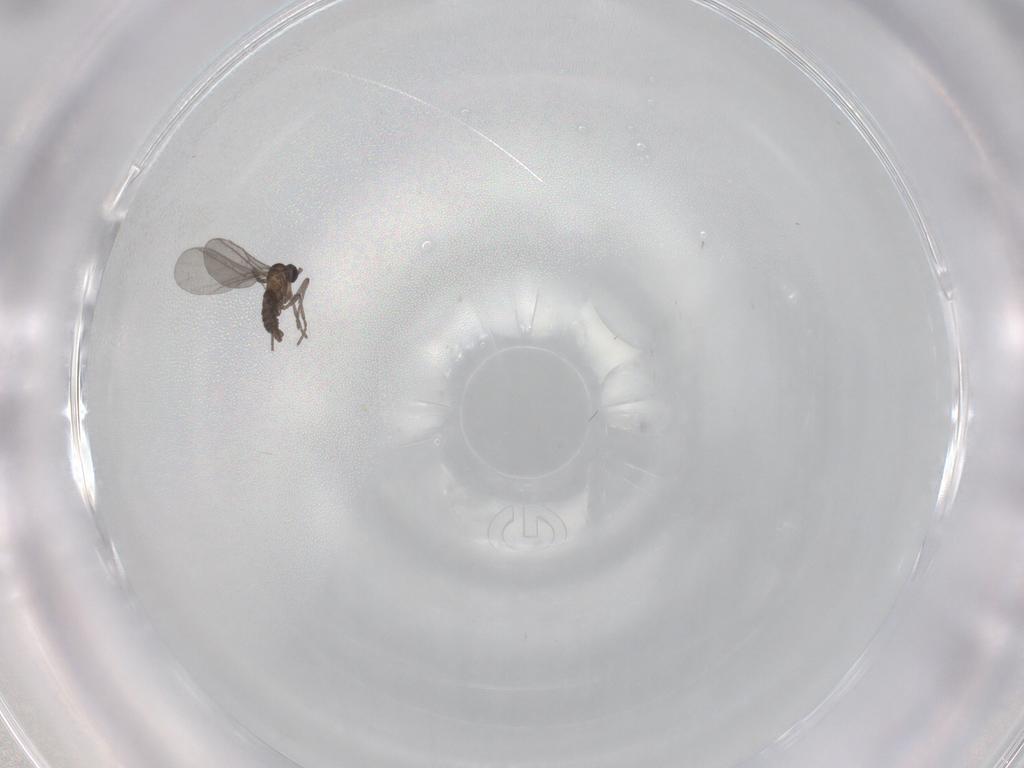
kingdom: Animalia
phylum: Arthropoda
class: Insecta
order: Diptera
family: Sciaridae
